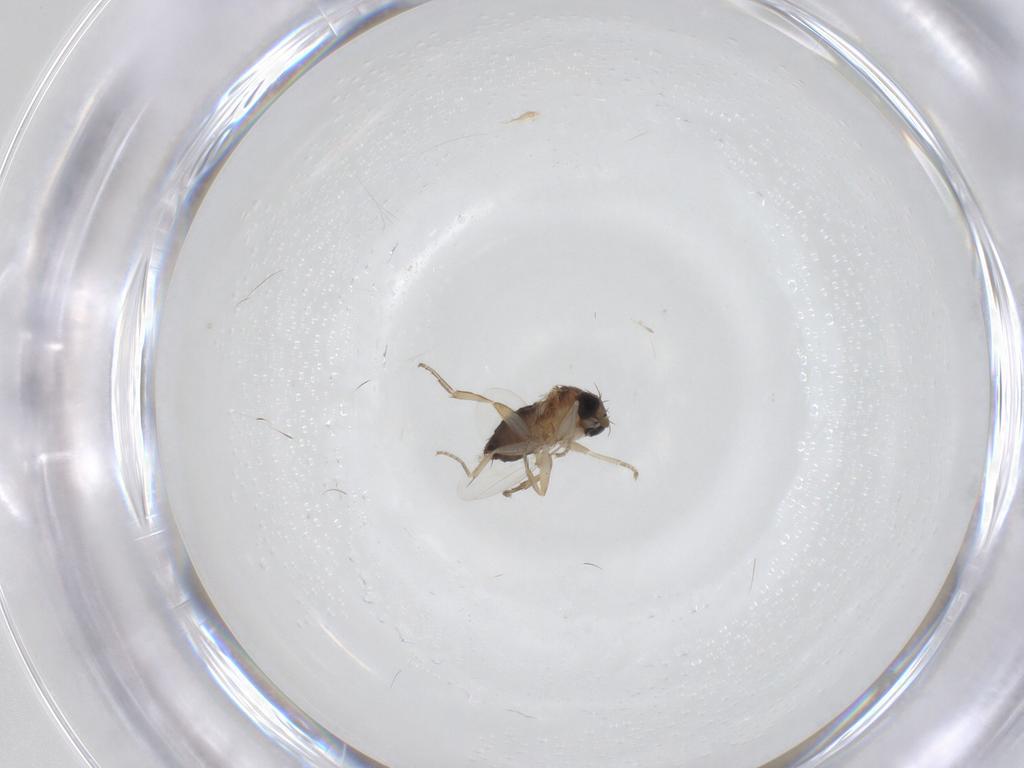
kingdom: Animalia
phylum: Arthropoda
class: Insecta
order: Diptera
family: Phoridae
